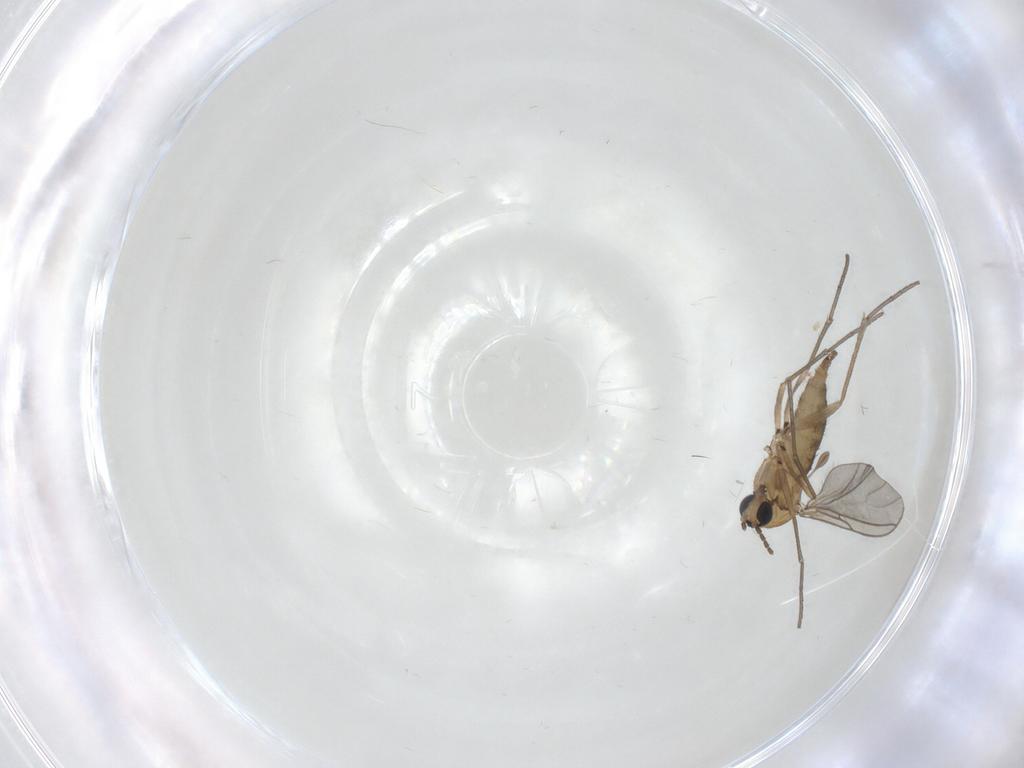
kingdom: Animalia
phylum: Arthropoda
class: Insecta
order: Diptera
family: Sciaridae
